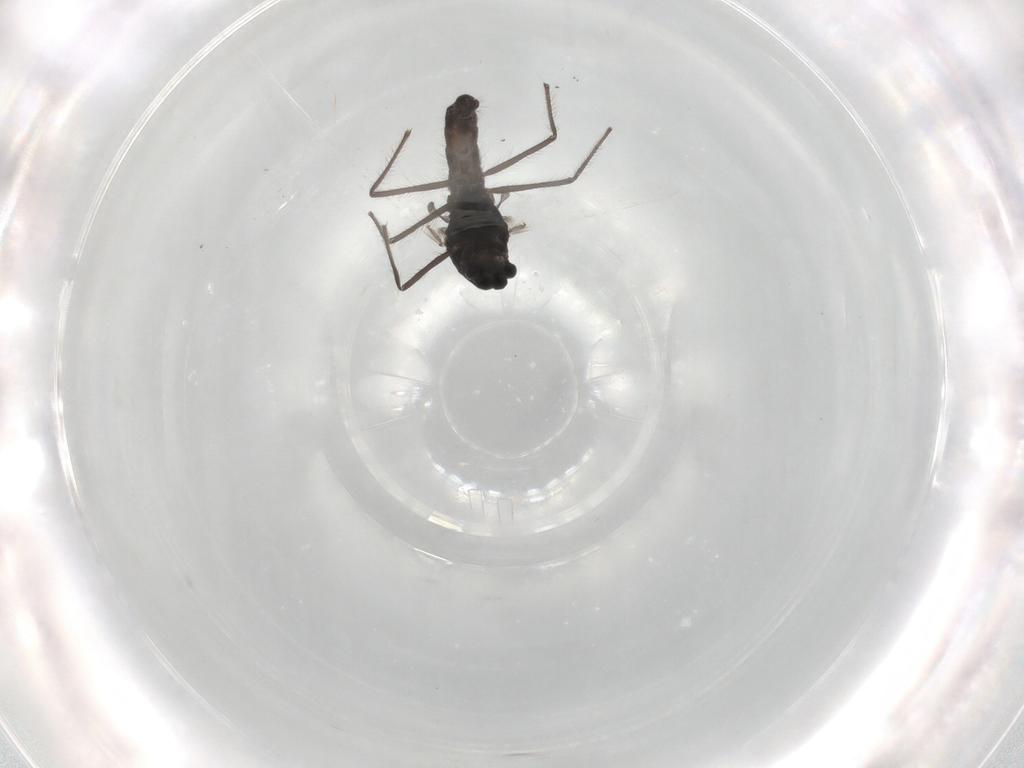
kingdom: Animalia
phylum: Arthropoda
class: Insecta
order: Diptera
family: Chironomidae
